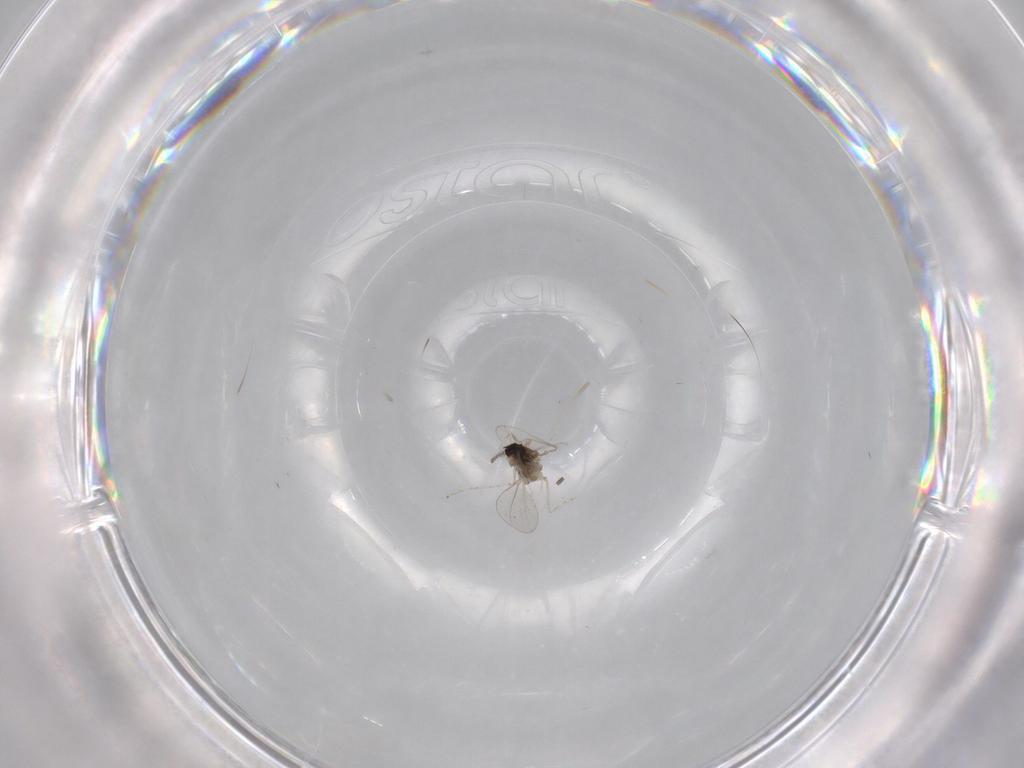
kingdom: Animalia
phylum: Arthropoda
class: Insecta
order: Diptera
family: Cecidomyiidae
